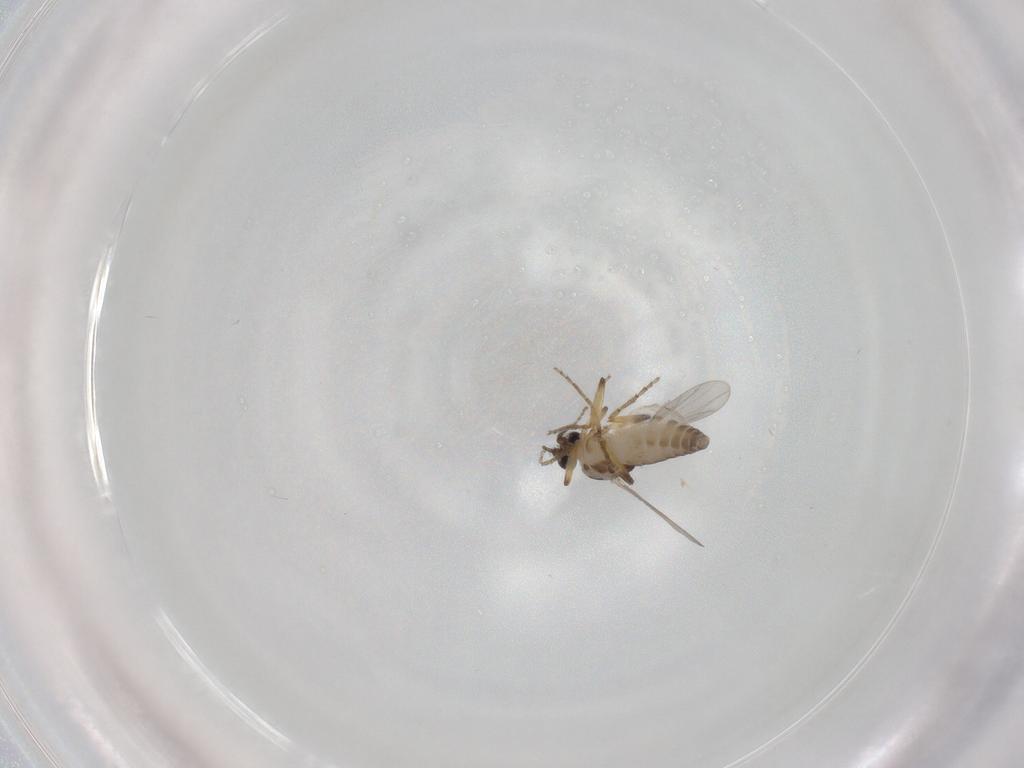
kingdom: Animalia
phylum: Arthropoda
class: Insecta
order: Diptera
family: Ceratopogonidae
